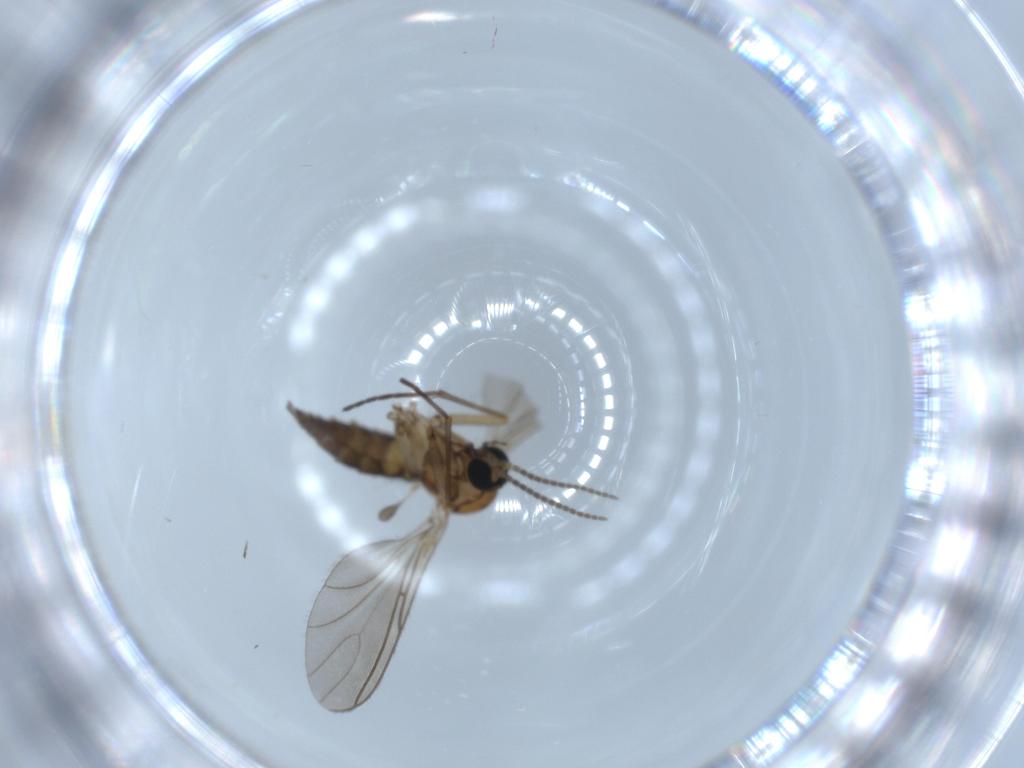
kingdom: Animalia
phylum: Arthropoda
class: Insecta
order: Diptera
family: Sciaridae
